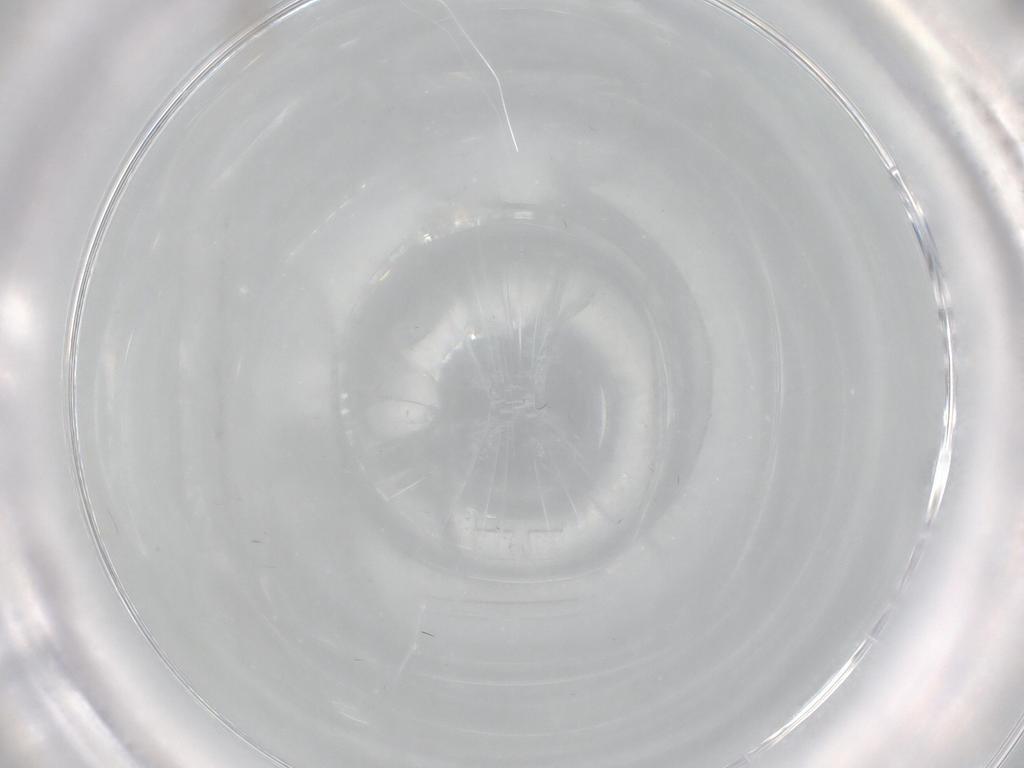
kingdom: Animalia
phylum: Arthropoda
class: Insecta
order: Diptera
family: Cecidomyiidae
